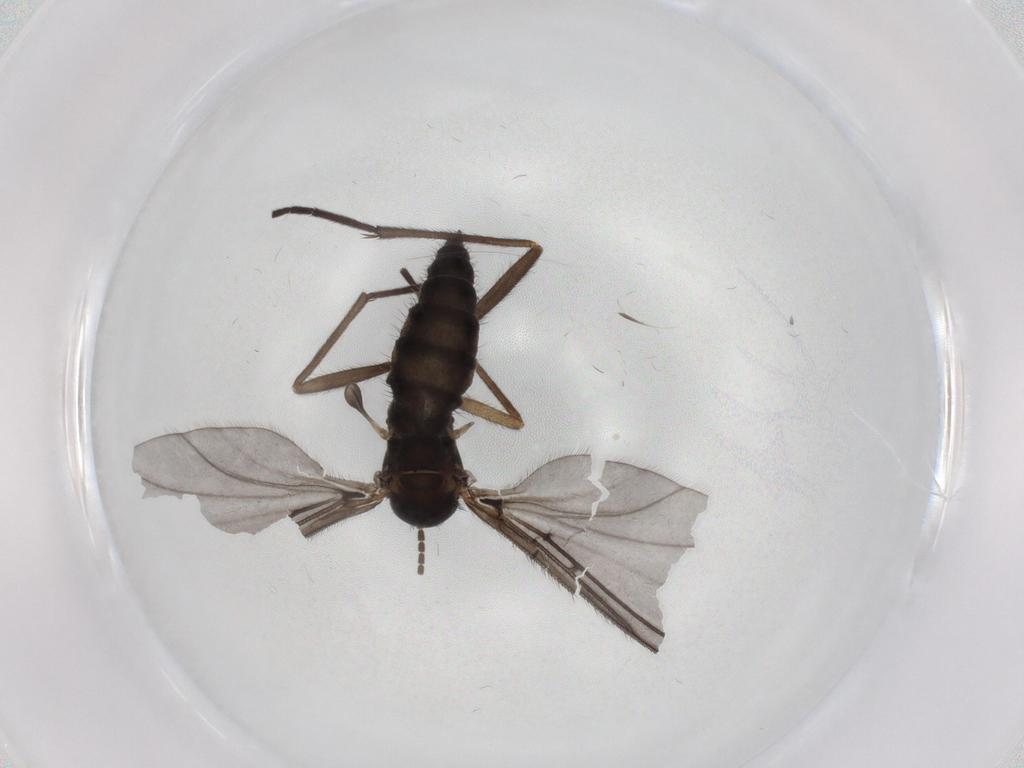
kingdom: Animalia
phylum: Arthropoda
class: Insecta
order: Diptera
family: Sciaridae
